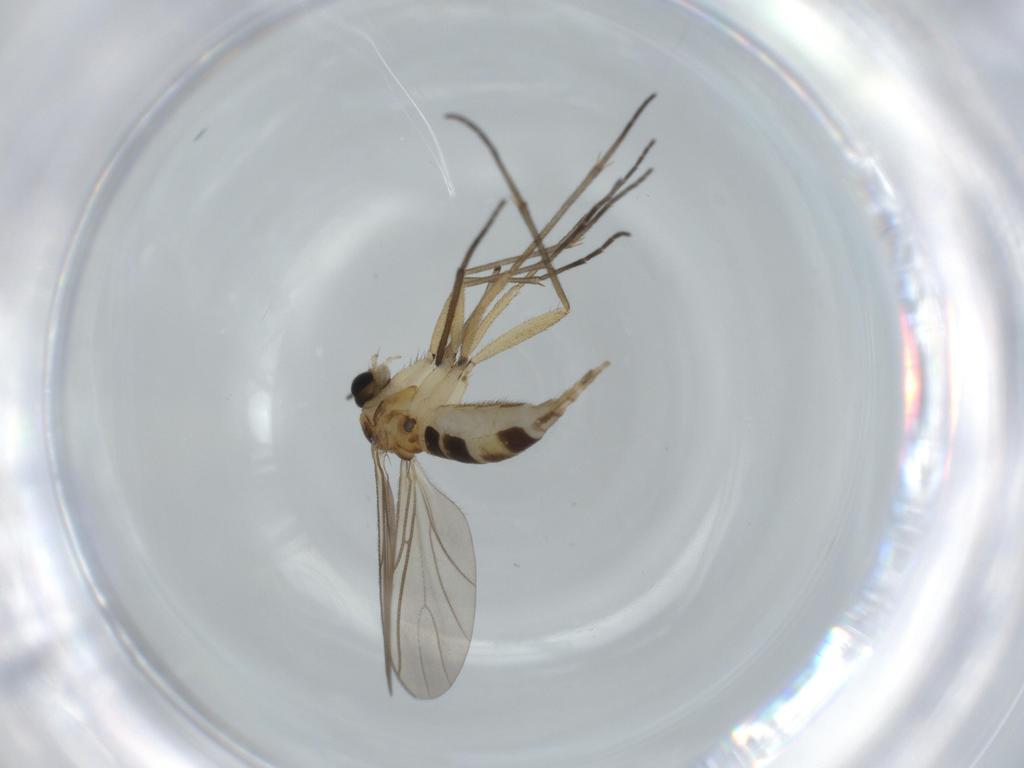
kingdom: Animalia
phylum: Arthropoda
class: Insecta
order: Diptera
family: Sciaridae
